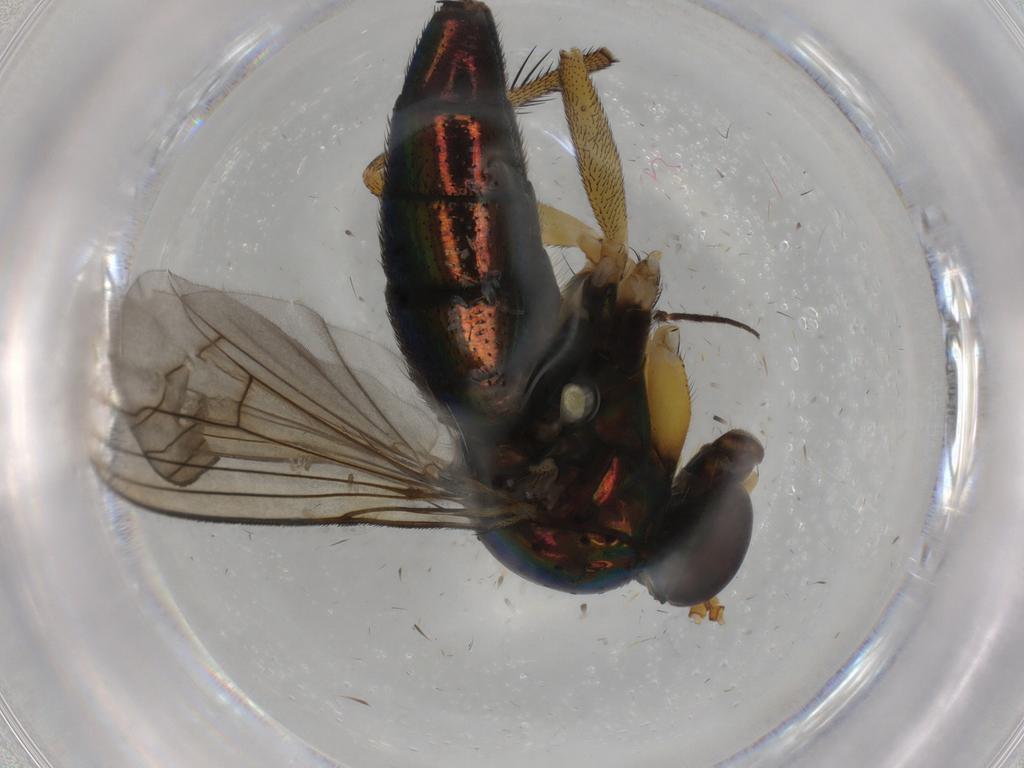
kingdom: Animalia
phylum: Arthropoda
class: Insecta
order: Diptera
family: Dolichopodidae
